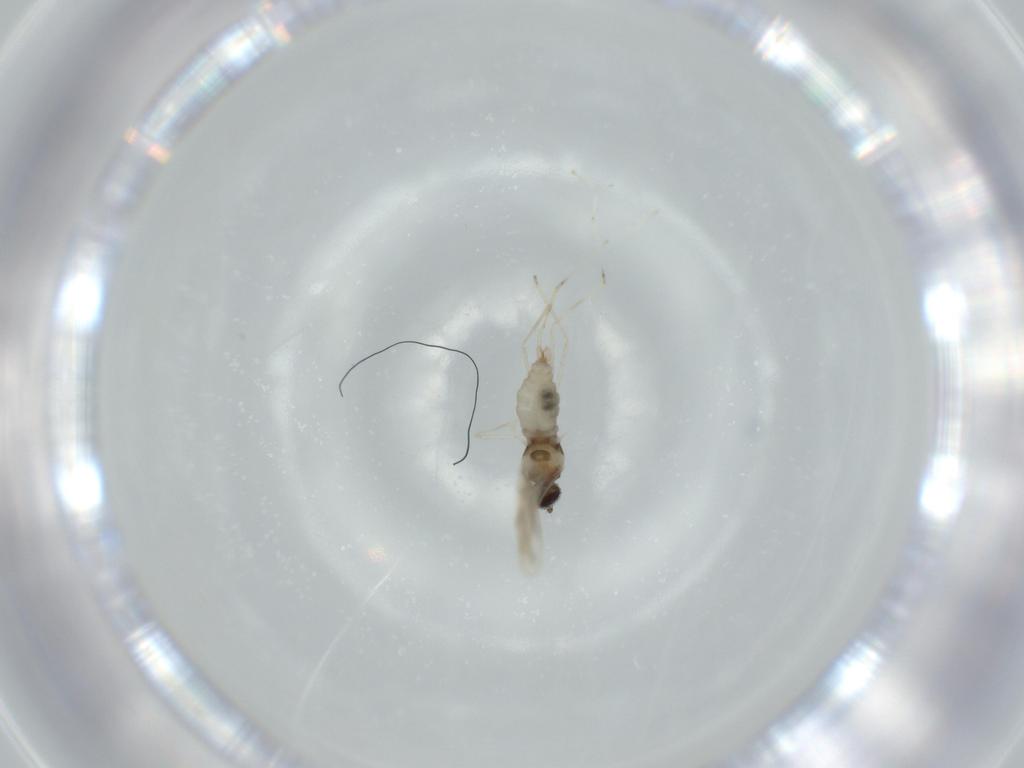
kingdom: Animalia
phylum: Arthropoda
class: Insecta
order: Diptera
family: Cecidomyiidae
